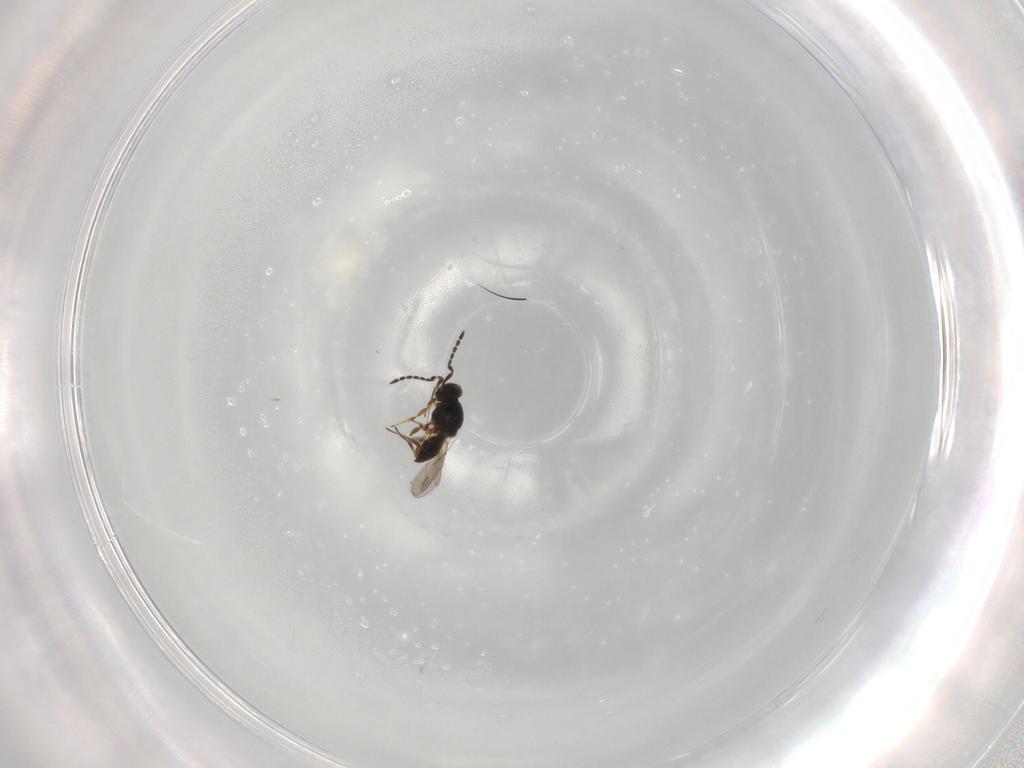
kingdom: Animalia
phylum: Arthropoda
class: Insecta
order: Hymenoptera
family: Platygastridae
